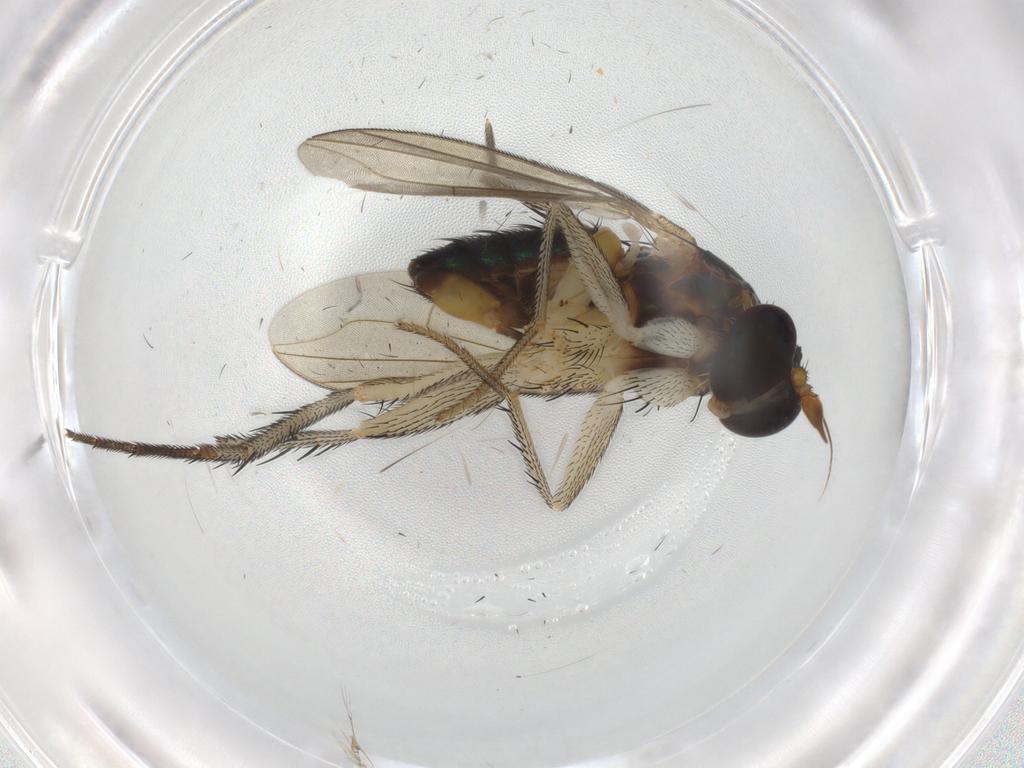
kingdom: Animalia
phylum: Arthropoda
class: Insecta
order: Diptera
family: Dolichopodidae
